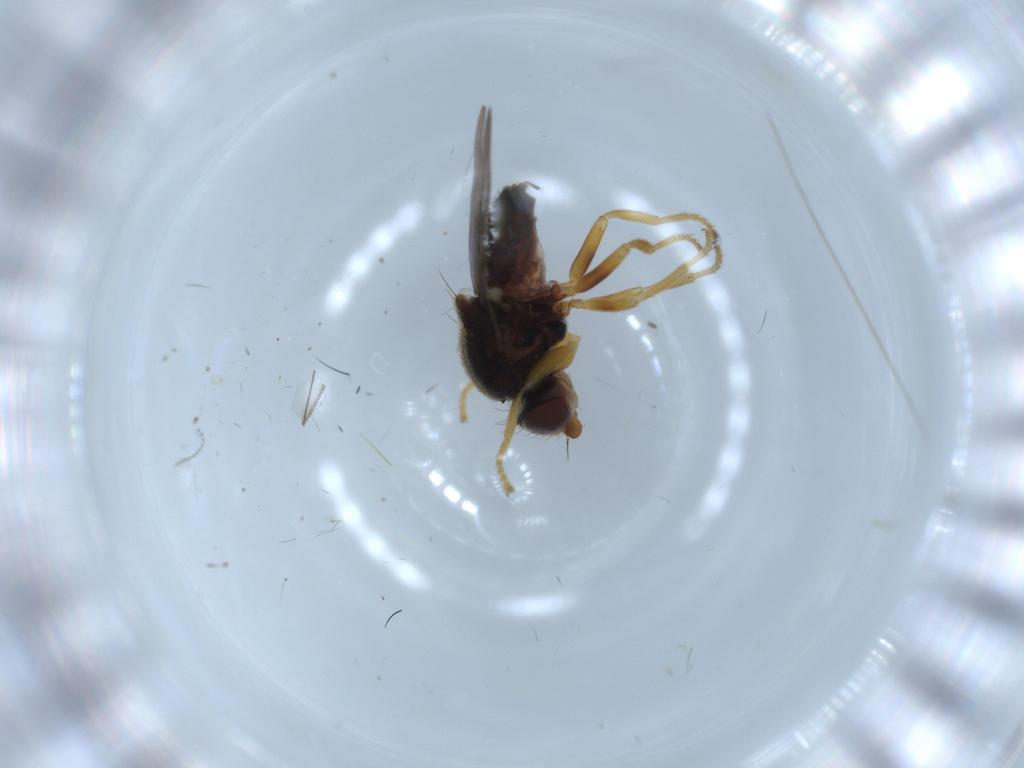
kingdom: Animalia
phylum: Arthropoda
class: Insecta
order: Diptera
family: Chloropidae
